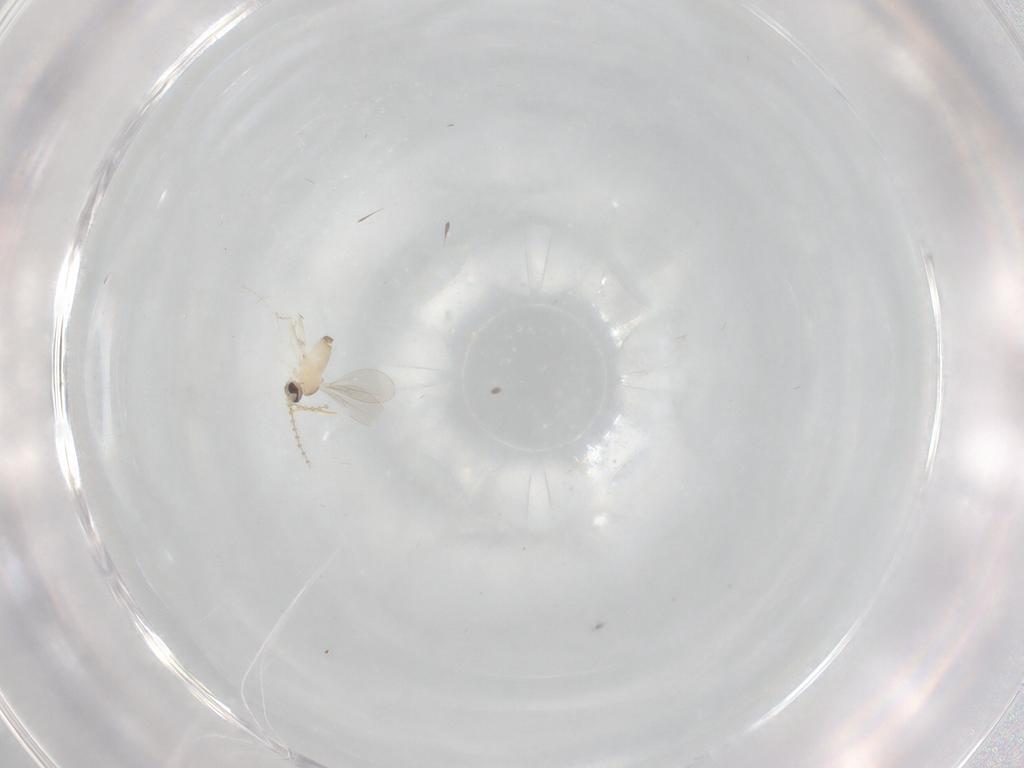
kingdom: Animalia
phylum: Arthropoda
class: Insecta
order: Diptera
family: Cecidomyiidae
